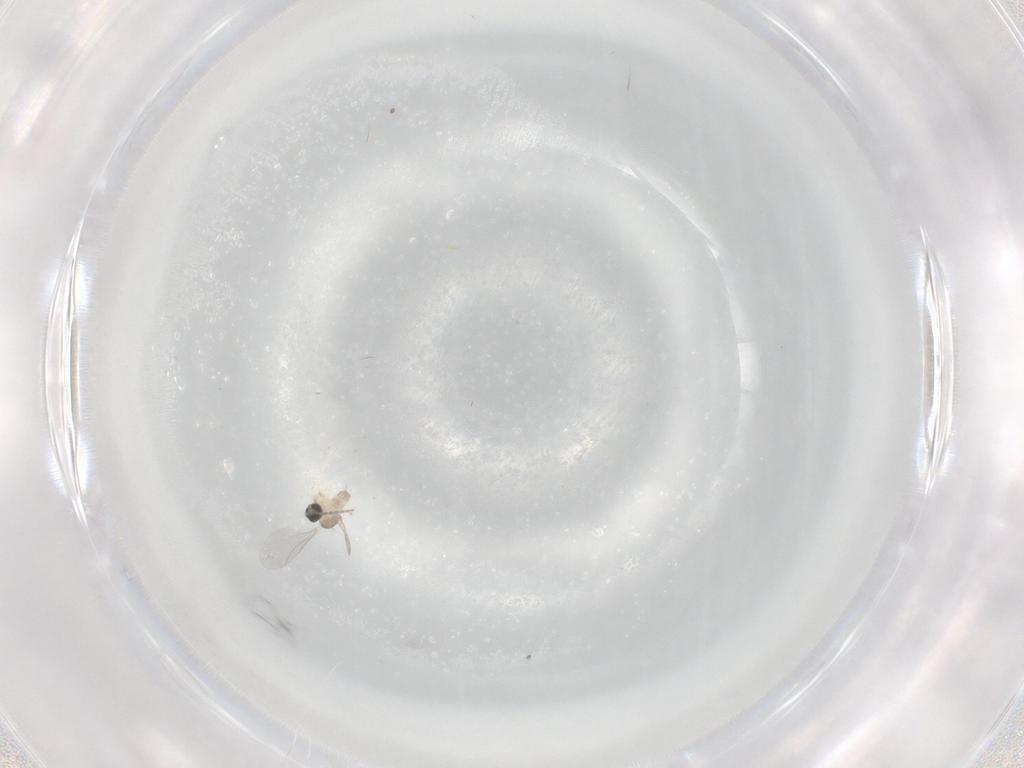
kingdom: Animalia
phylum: Arthropoda
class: Insecta
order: Diptera
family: Cecidomyiidae
